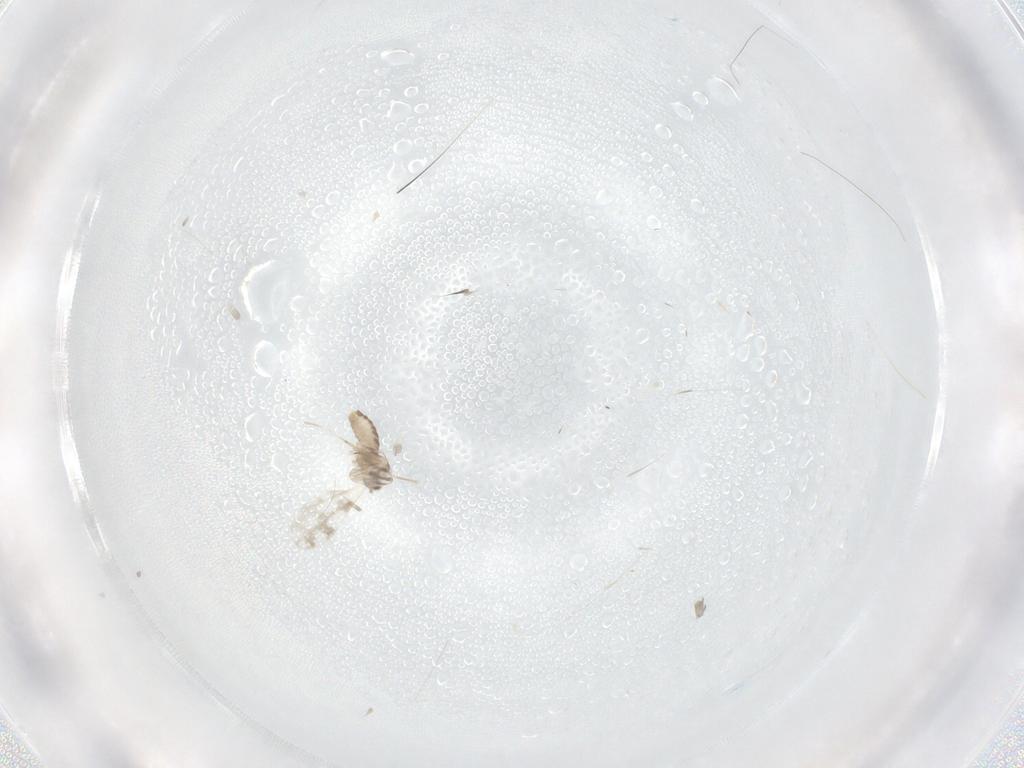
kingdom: Animalia
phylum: Arthropoda
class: Insecta
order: Diptera
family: Cecidomyiidae
